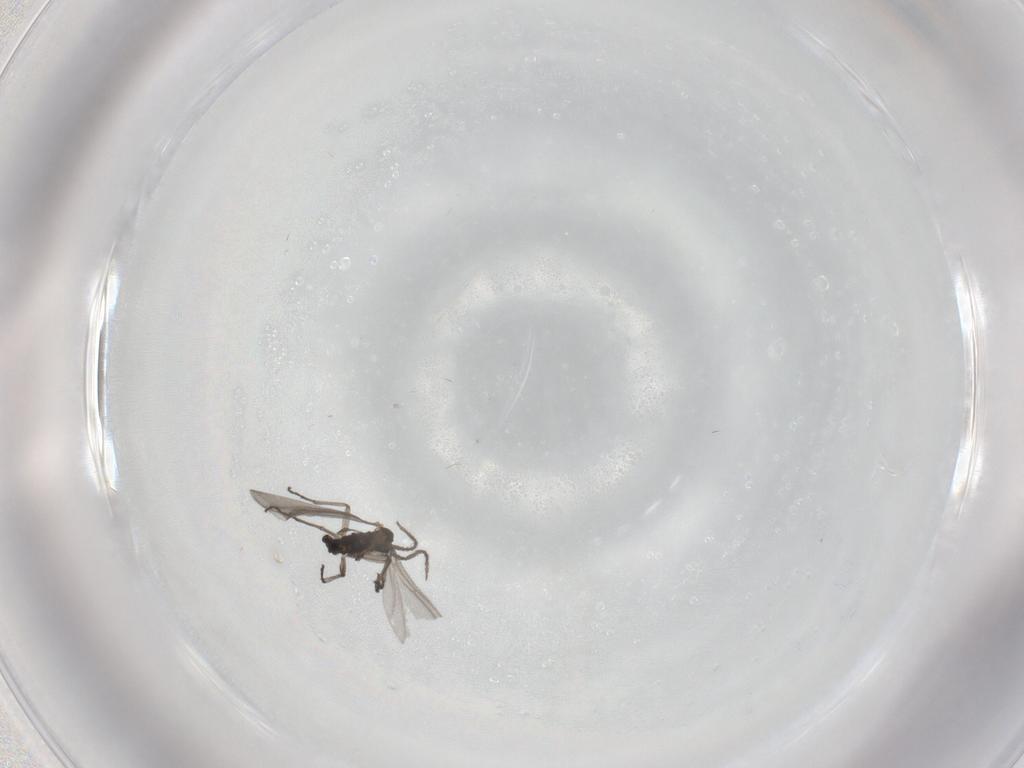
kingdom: Animalia
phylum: Arthropoda
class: Insecta
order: Diptera
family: Sciaridae
